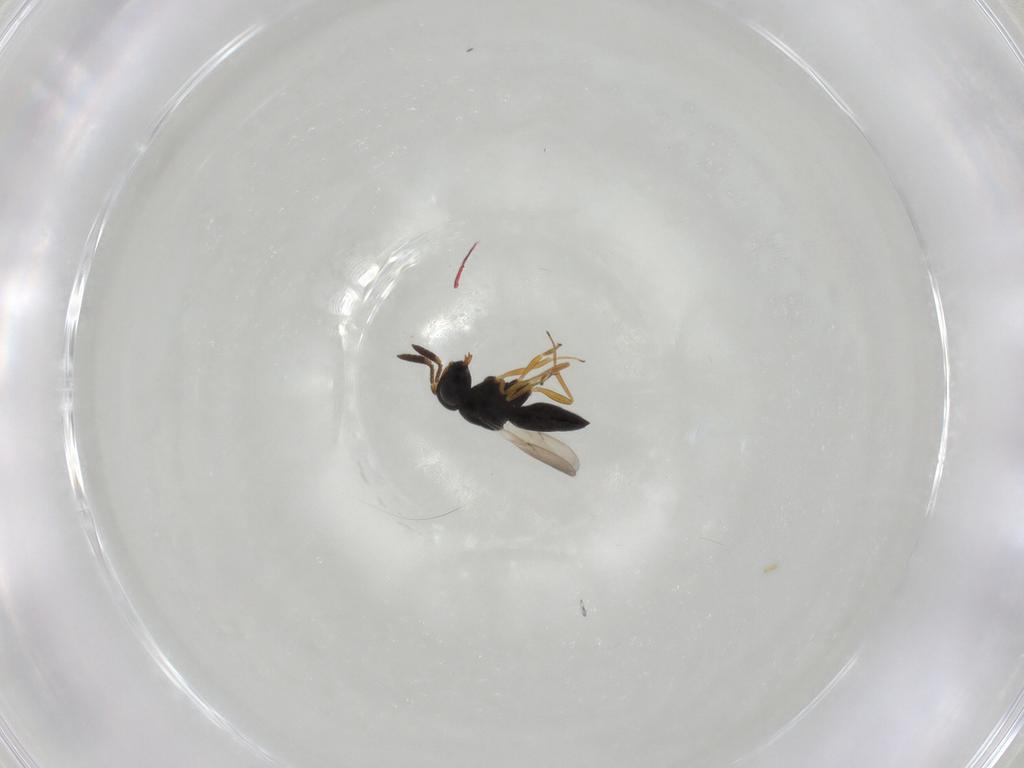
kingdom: Animalia
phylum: Arthropoda
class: Insecta
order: Hymenoptera
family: Scelionidae
